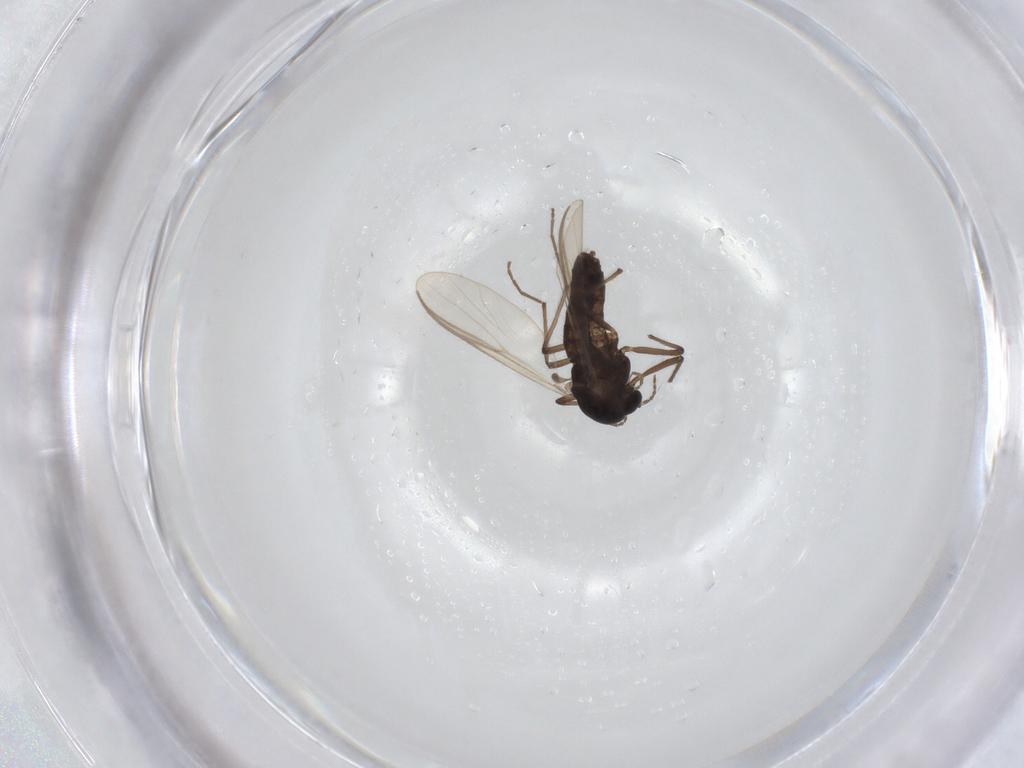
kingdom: Animalia
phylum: Arthropoda
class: Insecta
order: Diptera
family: Chironomidae
